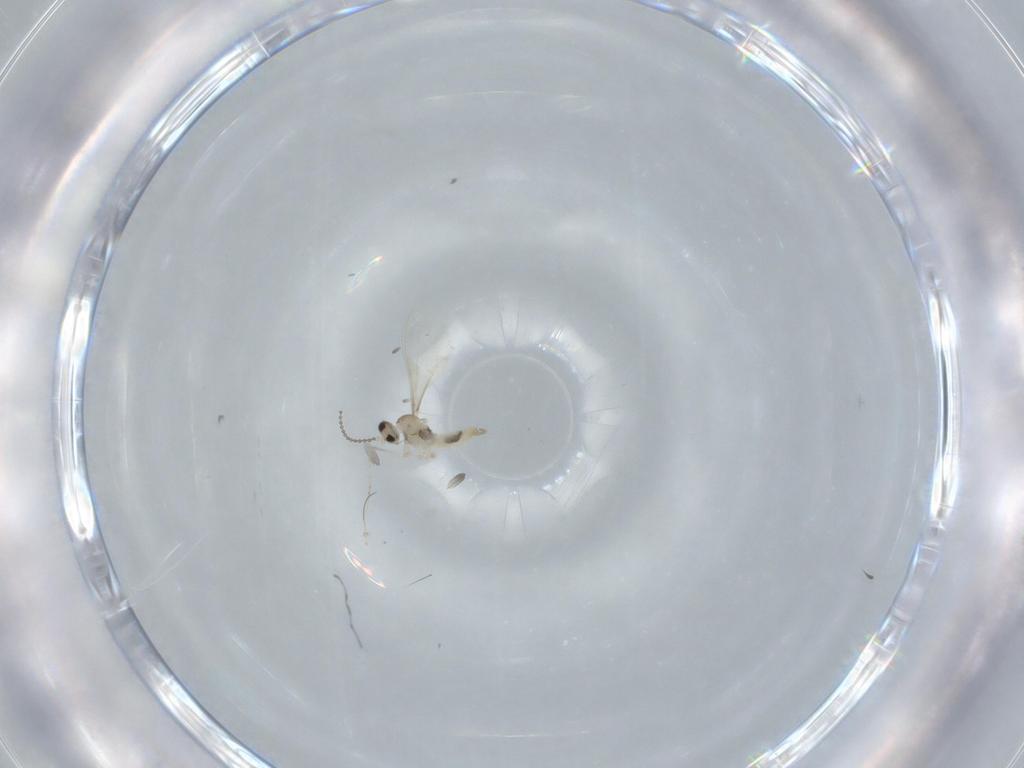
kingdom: Animalia
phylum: Arthropoda
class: Insecta
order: Diptera
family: Cecidomyiidae
